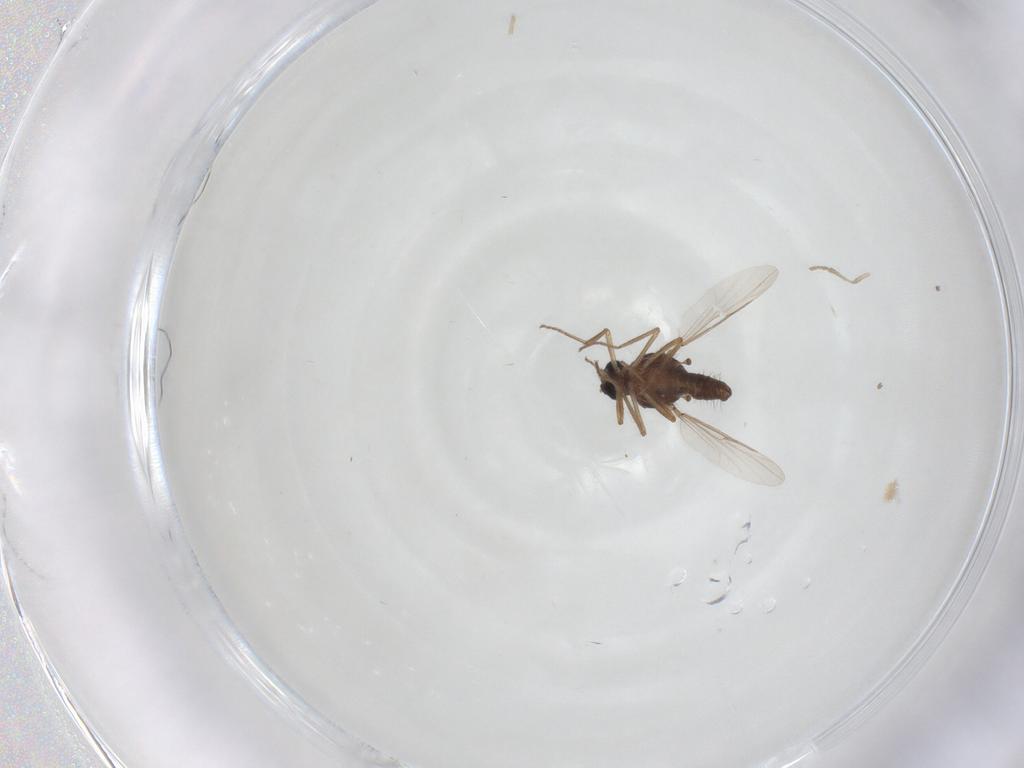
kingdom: Animalia
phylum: Arthropoda
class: Insecta
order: Diptera
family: Ceratopogonidae
